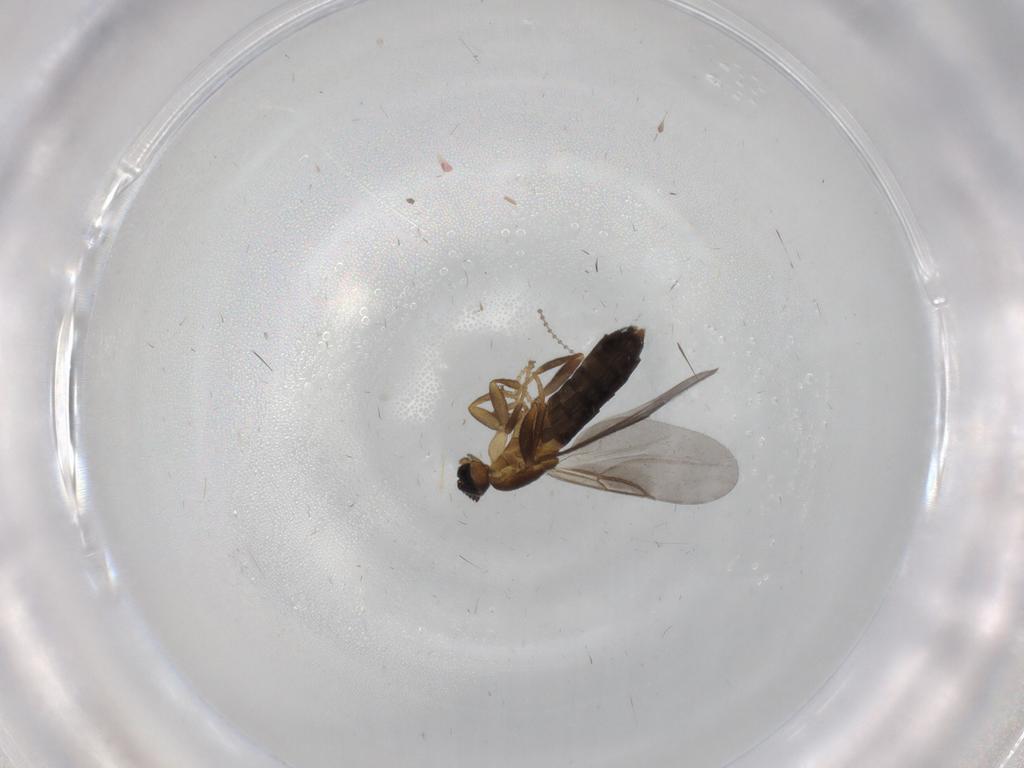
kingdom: Animalia
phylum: Arthropoda
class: Insecta
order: Diptera
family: Scatopsidae
